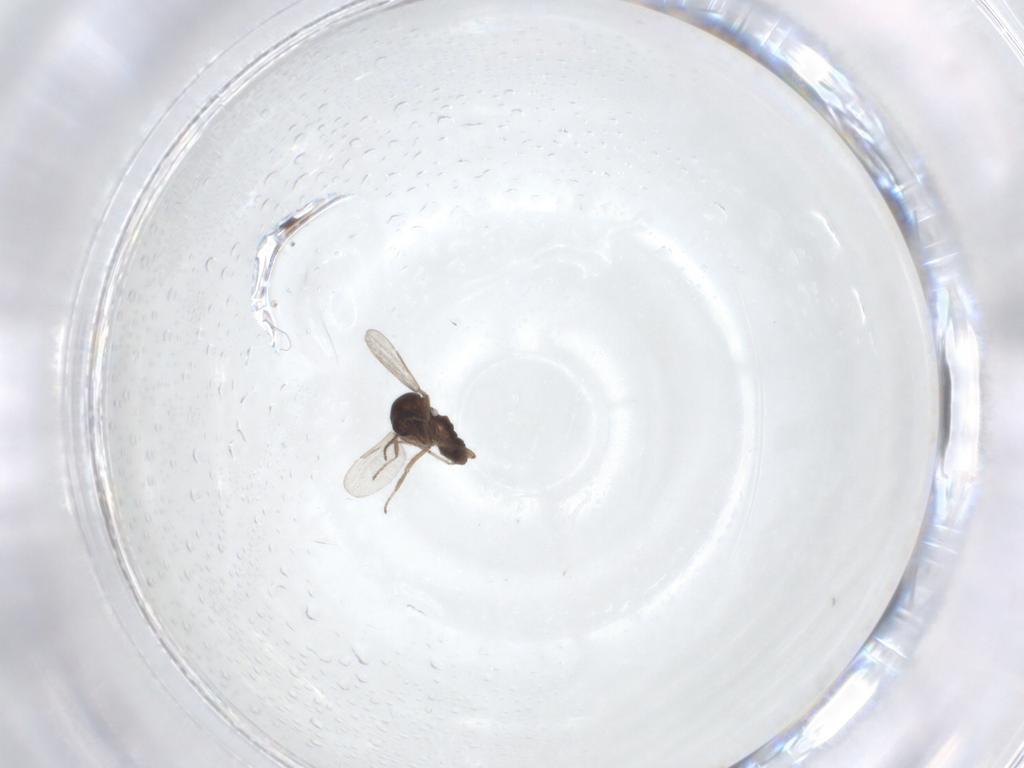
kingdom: Animalia
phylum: Arthropoda
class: Insecta
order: Diptera
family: Ceratopogonidae
